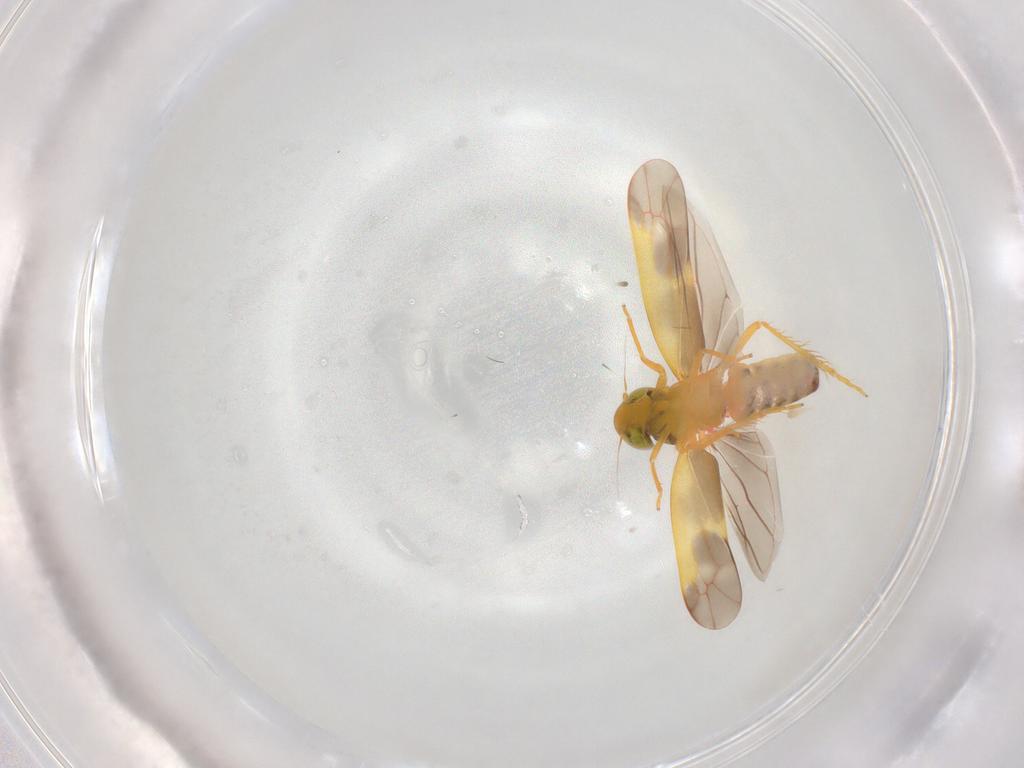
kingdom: Animalia
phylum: Arthropoda
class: Insecta
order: Hemiptera
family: Cicadellidae
